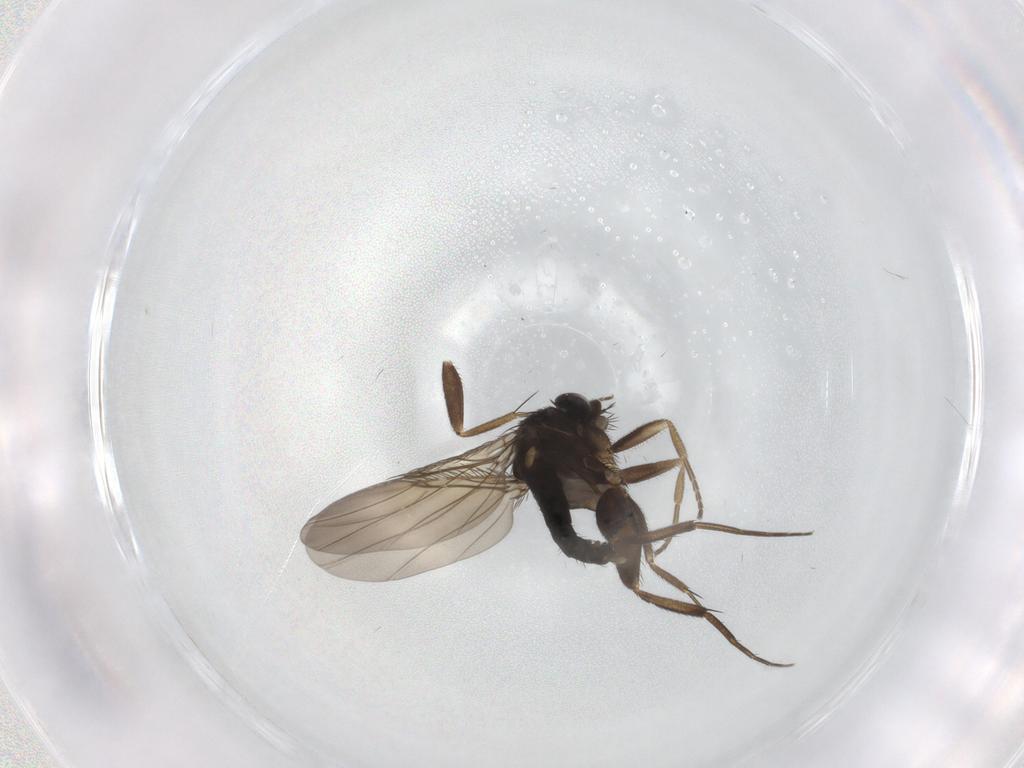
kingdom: Animalia
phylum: Arthropoda
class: Insecta
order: Diptera
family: Phoridae
